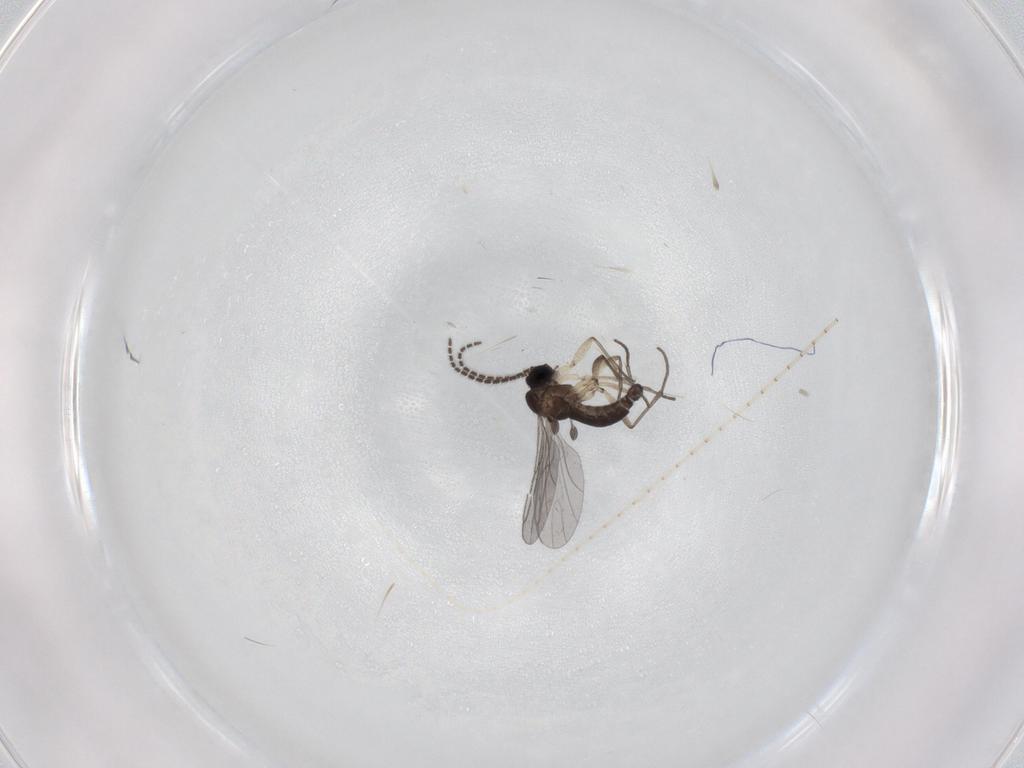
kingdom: Animalia
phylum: Arthropoda
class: Insecta
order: Diptera
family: Sciaridae
